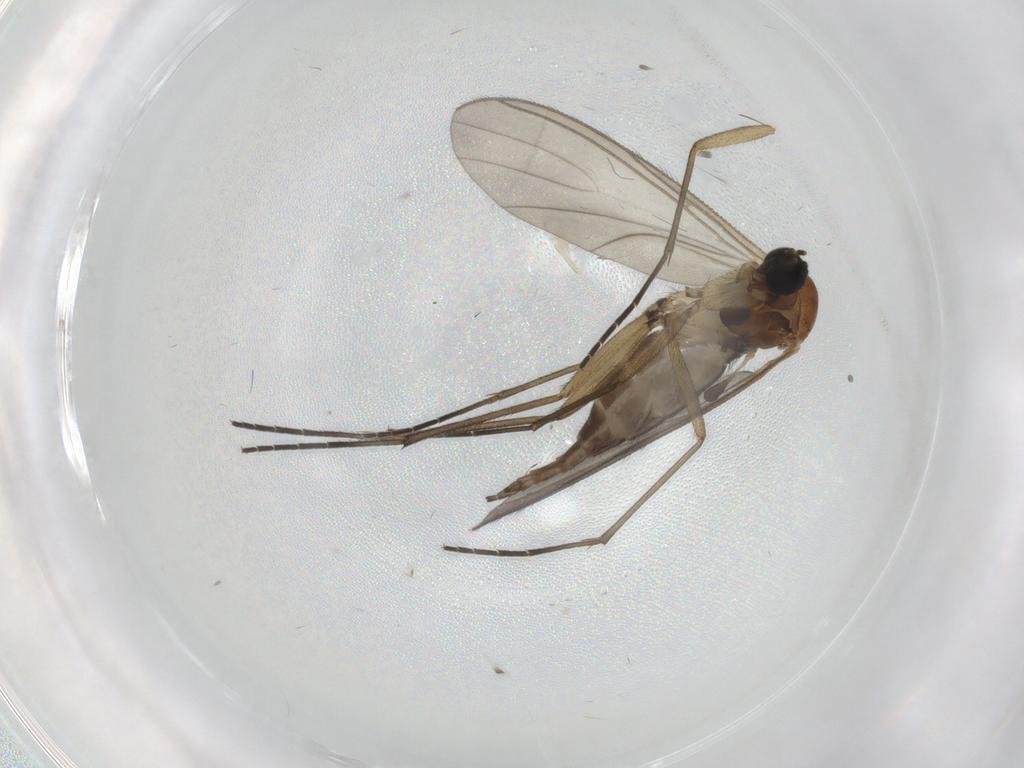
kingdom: Animalia
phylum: Arthropoda
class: Insecta
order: Diptera
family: Sciaridae
